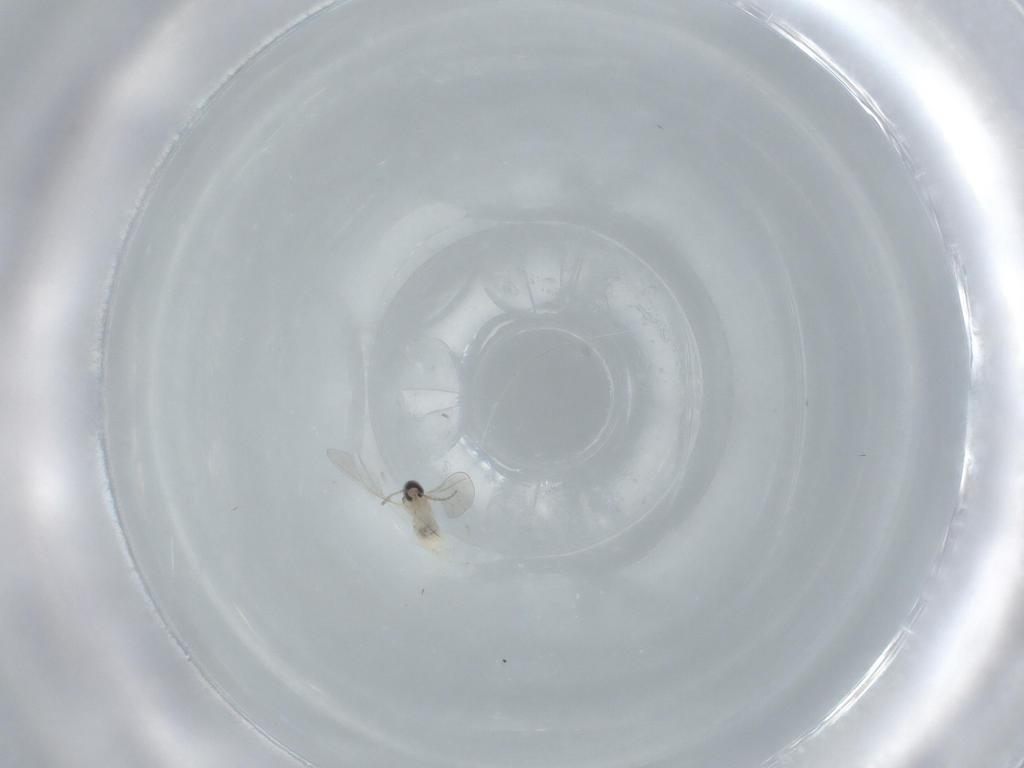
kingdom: Animalia
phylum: Arthropoda
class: Insecta
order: Diptera
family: Cecidomyiidae
